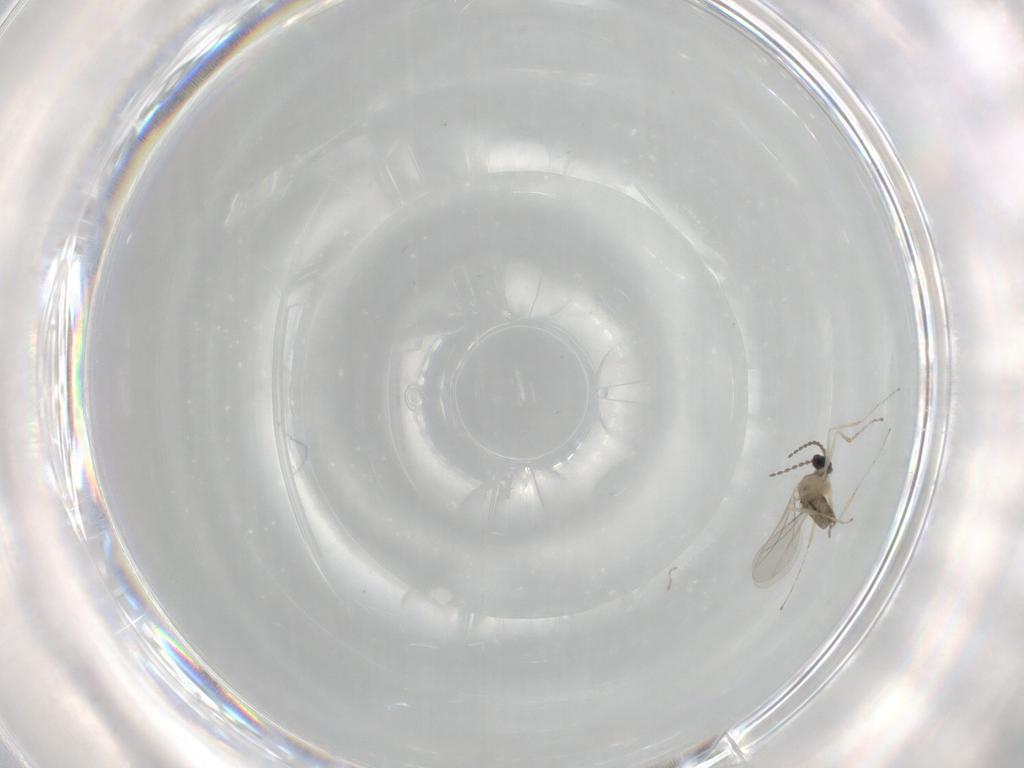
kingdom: Animalia
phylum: Arthropoda
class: Insecta
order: Diptera
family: Cecidomyiidae
